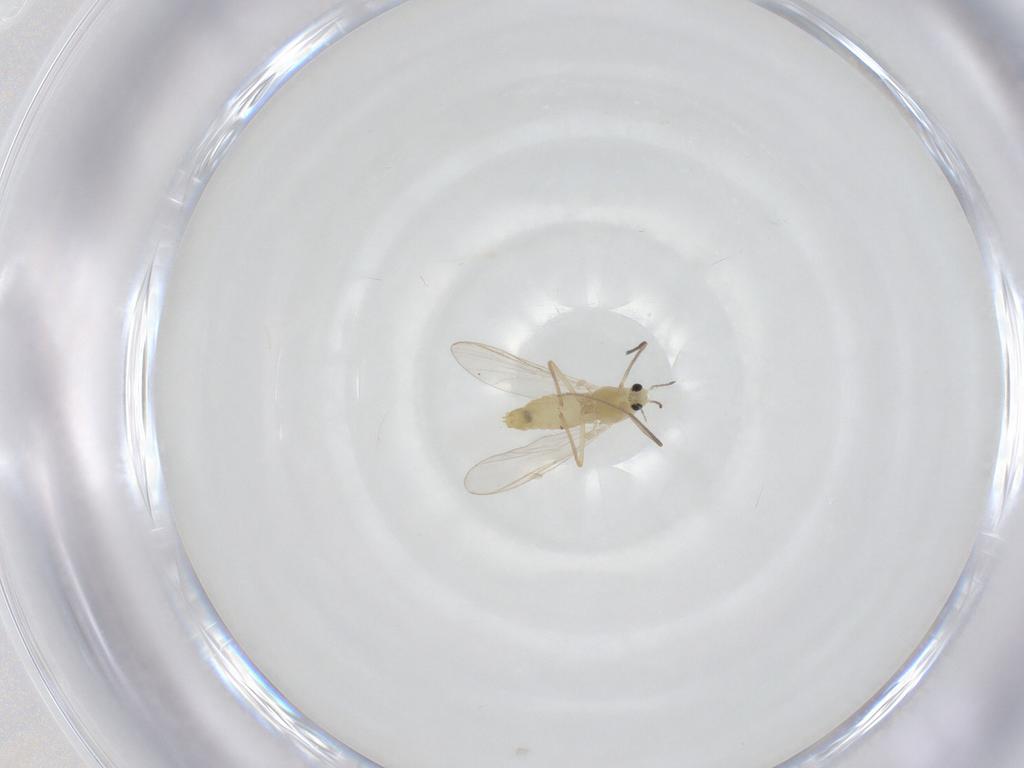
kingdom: Animalia
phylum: Arthropoda
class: Insecta
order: Diptera
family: Chironomidae
